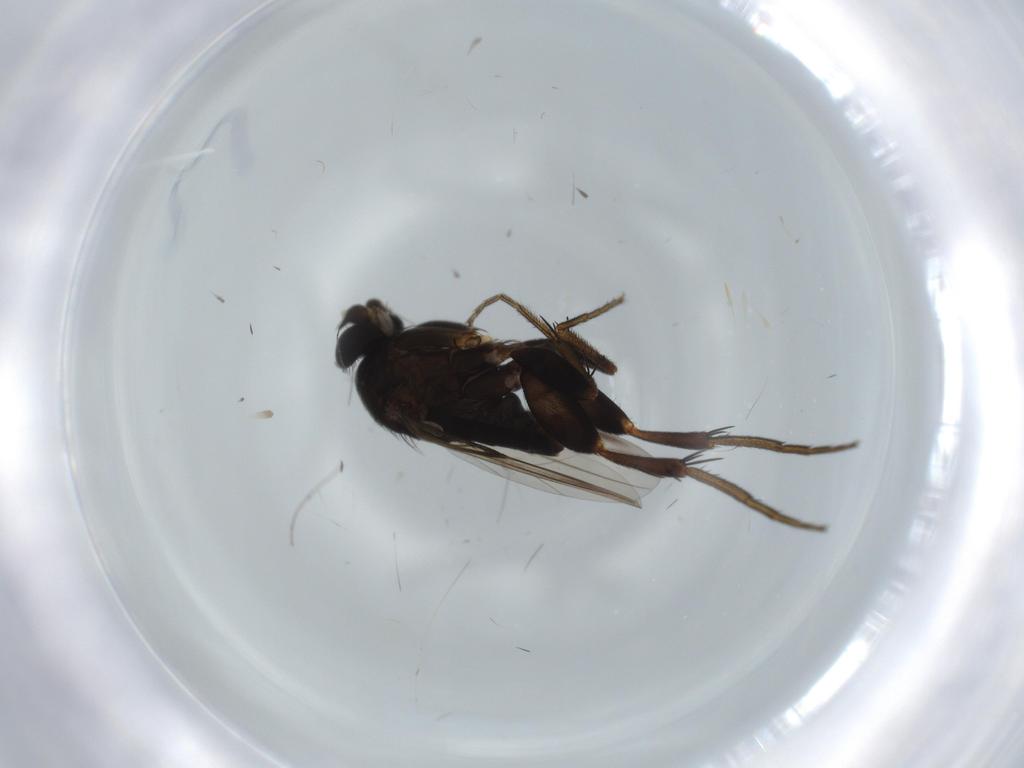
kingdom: Animalia
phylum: Arthropoda
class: Insecta
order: Diptera
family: Phoridae
